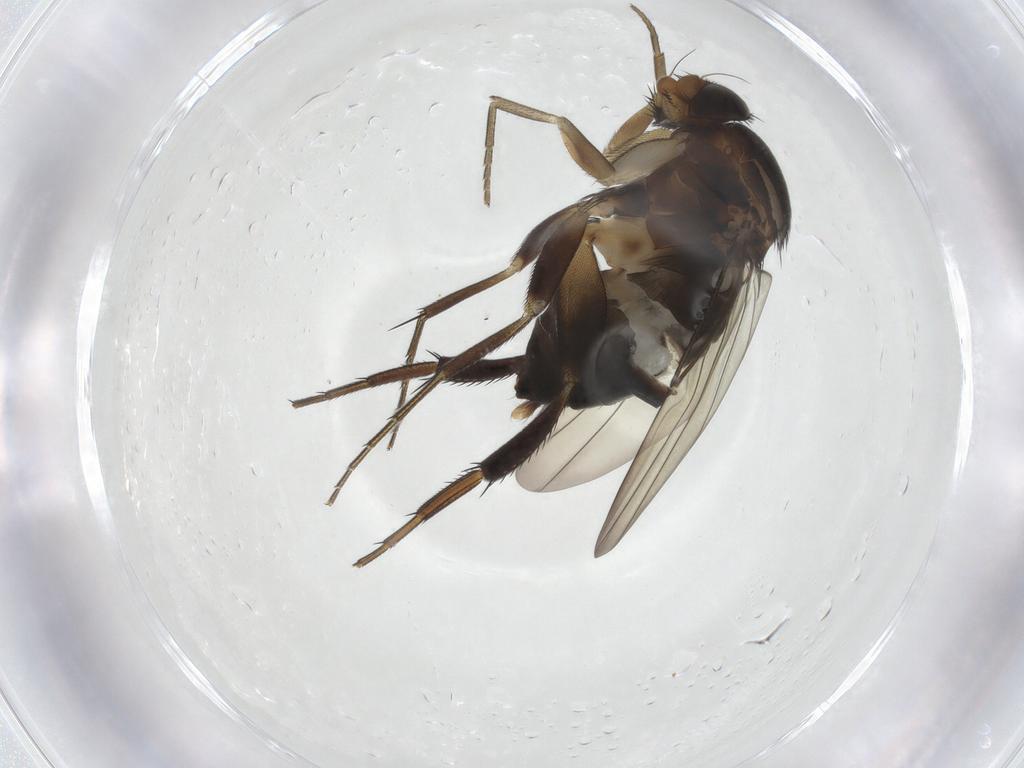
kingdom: Animalia
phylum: Arthropoda
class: Insecta
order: Diptera
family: Phoridae
